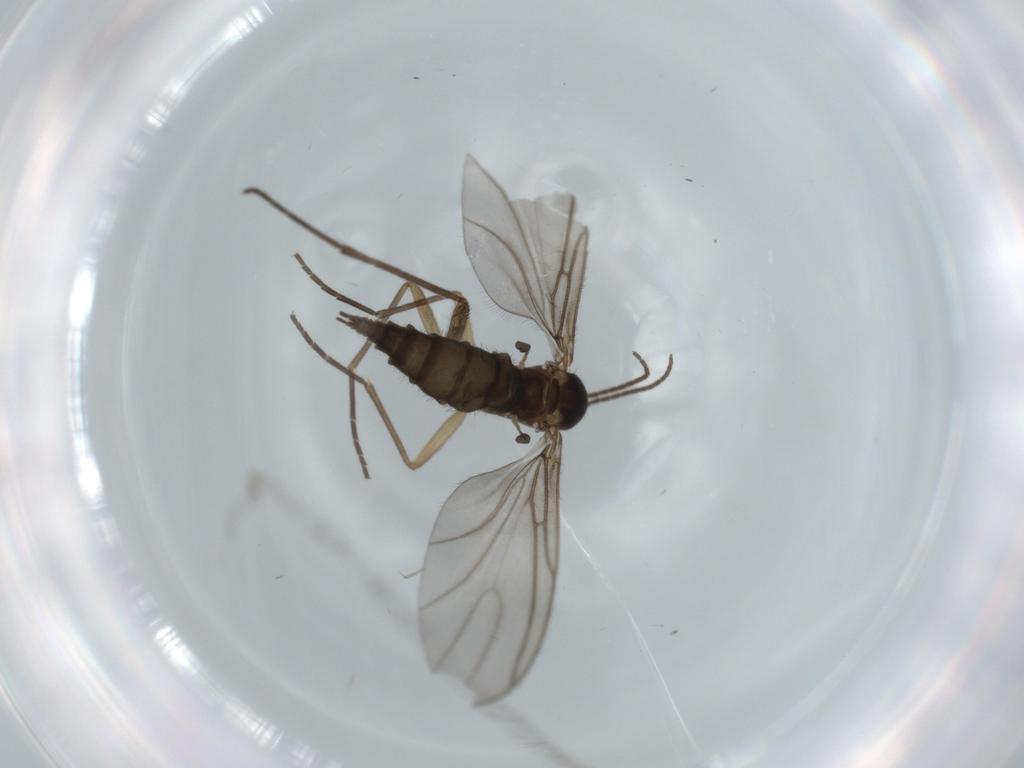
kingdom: Animalia
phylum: Arthropoda
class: Insecta
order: Diptera
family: Sciaridae
